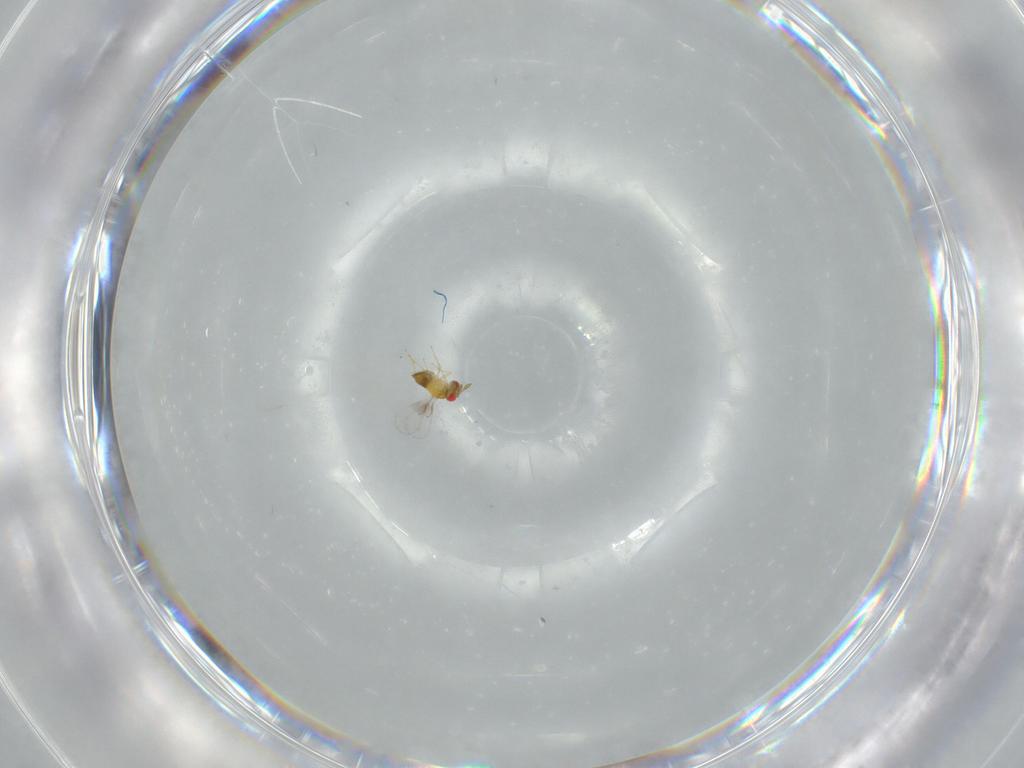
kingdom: Animalia
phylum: Arthropoda
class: Insecta
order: Hymenoptera
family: Trichogrammatidae
